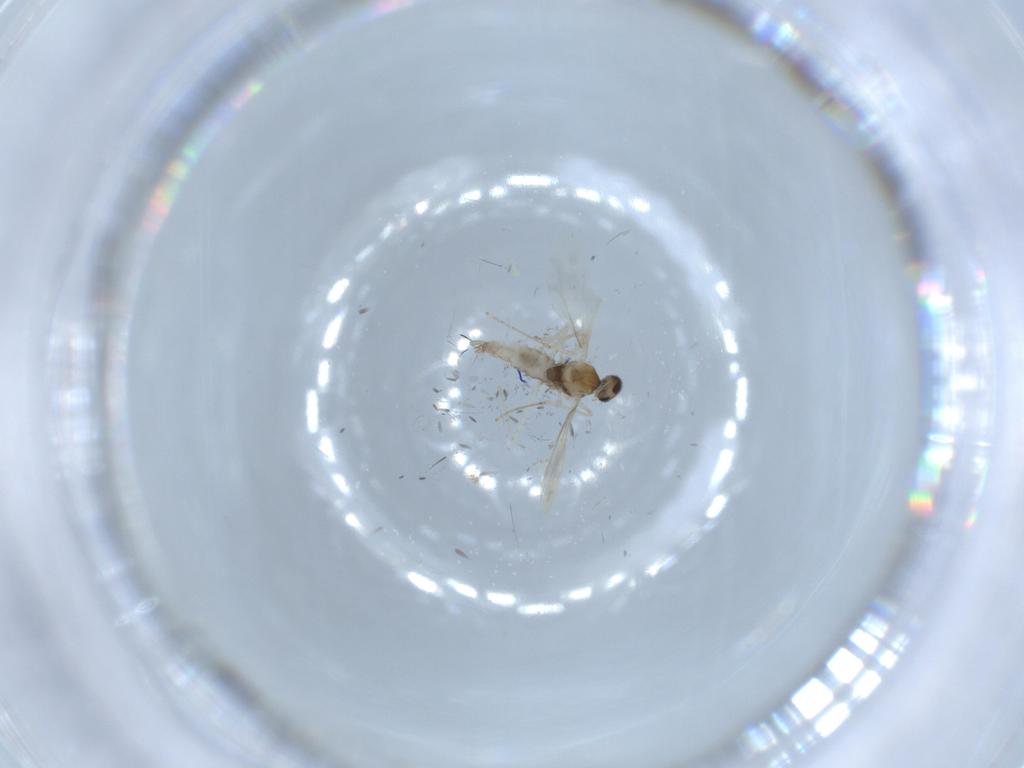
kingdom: Animalia
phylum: Arthropoda
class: Insecta
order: Diptera
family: Cecidomyiidae
